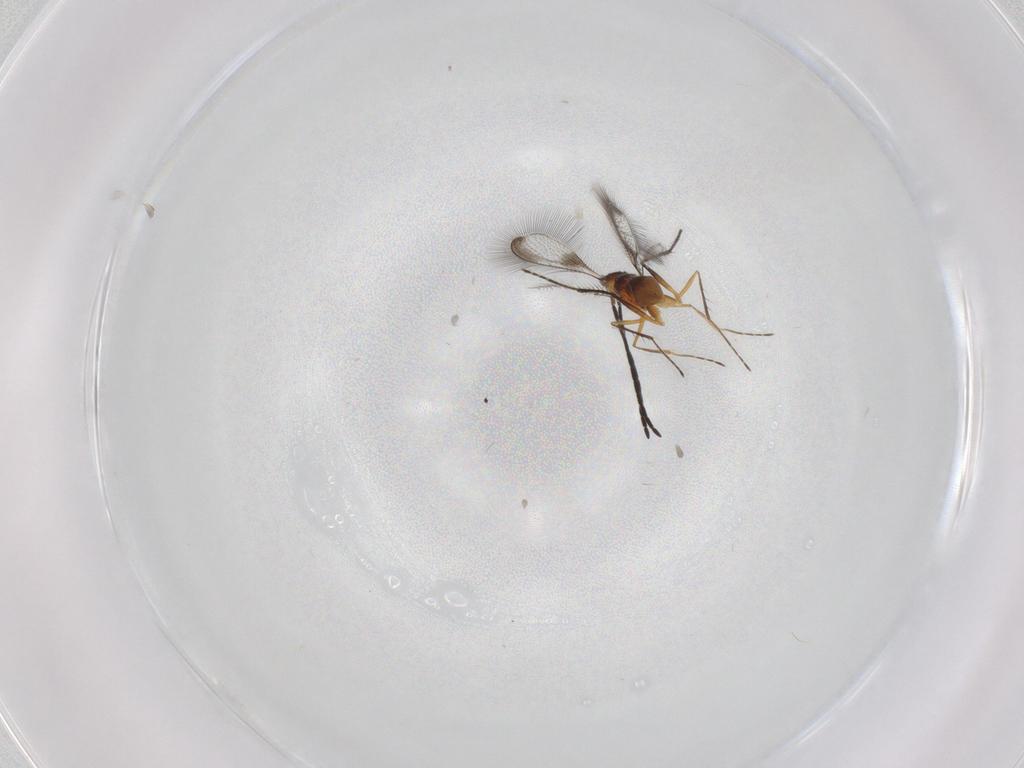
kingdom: Animalia
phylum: Arthropoda
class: Insecta
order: Hymenoptera
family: Mymaridae
